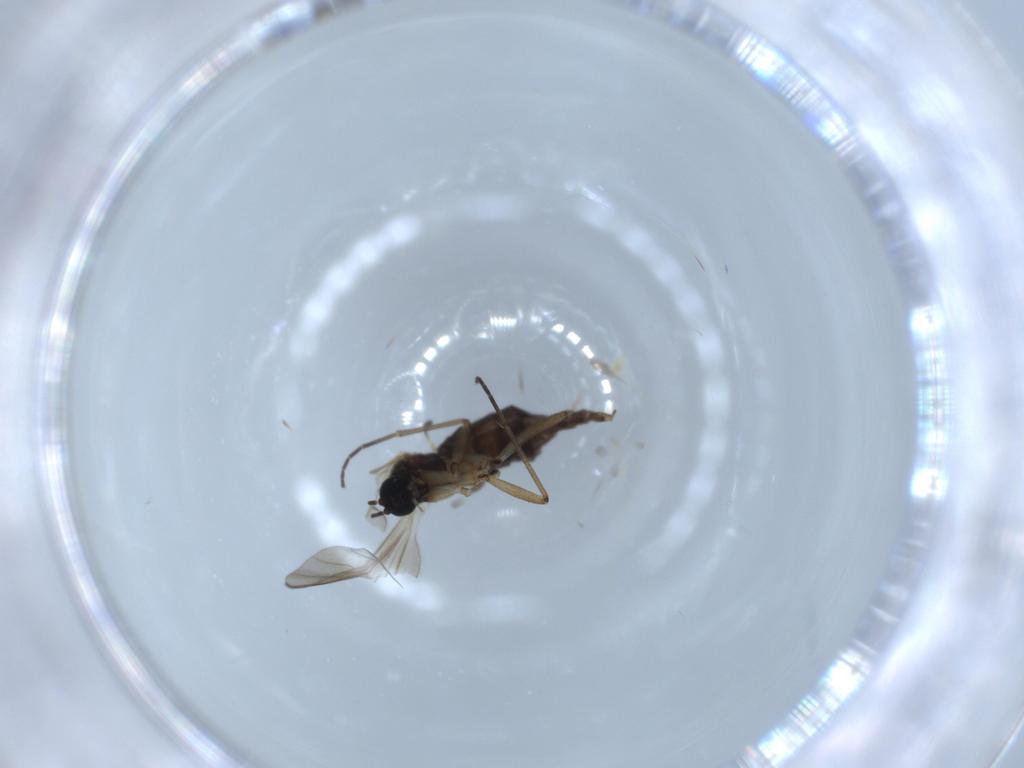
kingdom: Animalia
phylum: Arthropoda
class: Insecta
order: Diptera
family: Sciaridae
